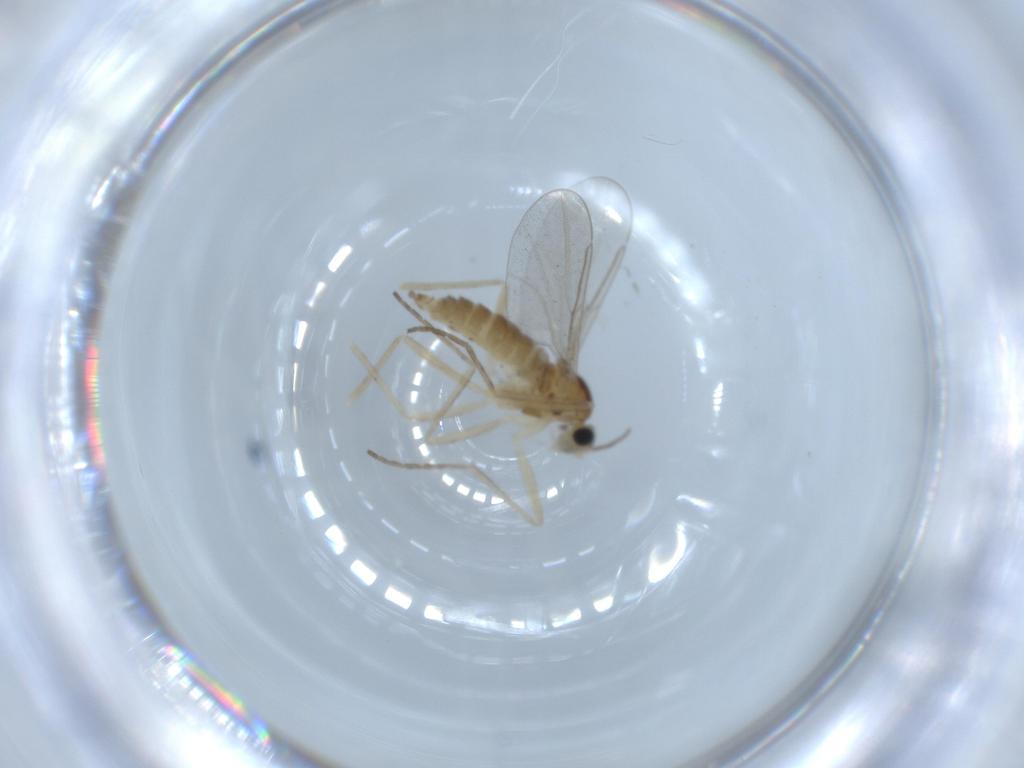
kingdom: Animalia
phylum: Arthropoda
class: Insecta
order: Diptera
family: Cecidomyiidae
